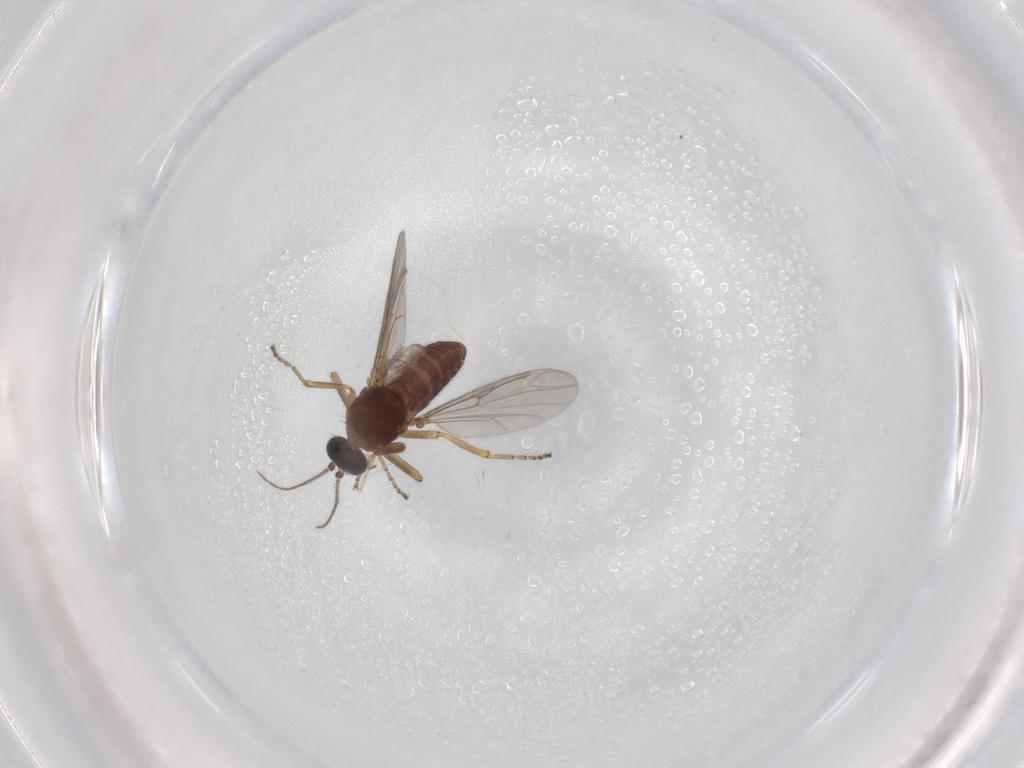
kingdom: Animalia
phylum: Arthropoda
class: Insecta
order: Diptera
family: Ceratopogonidae
